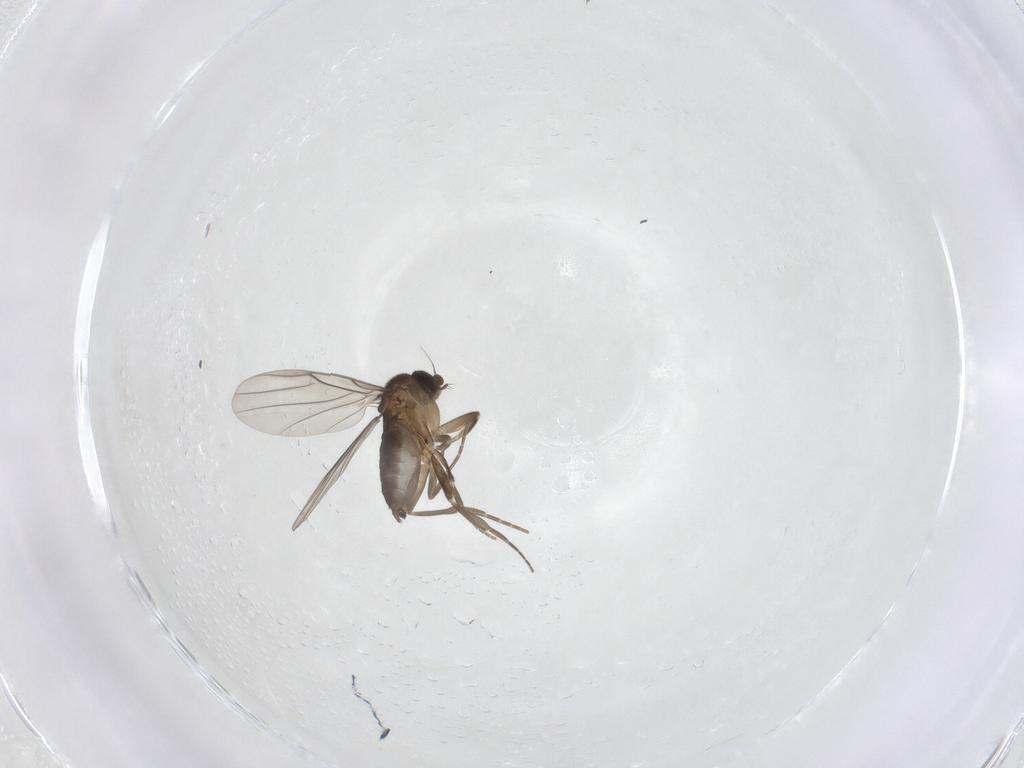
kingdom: Animalia
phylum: Arthropoda
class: Insecta
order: Diptera
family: Phoridae
